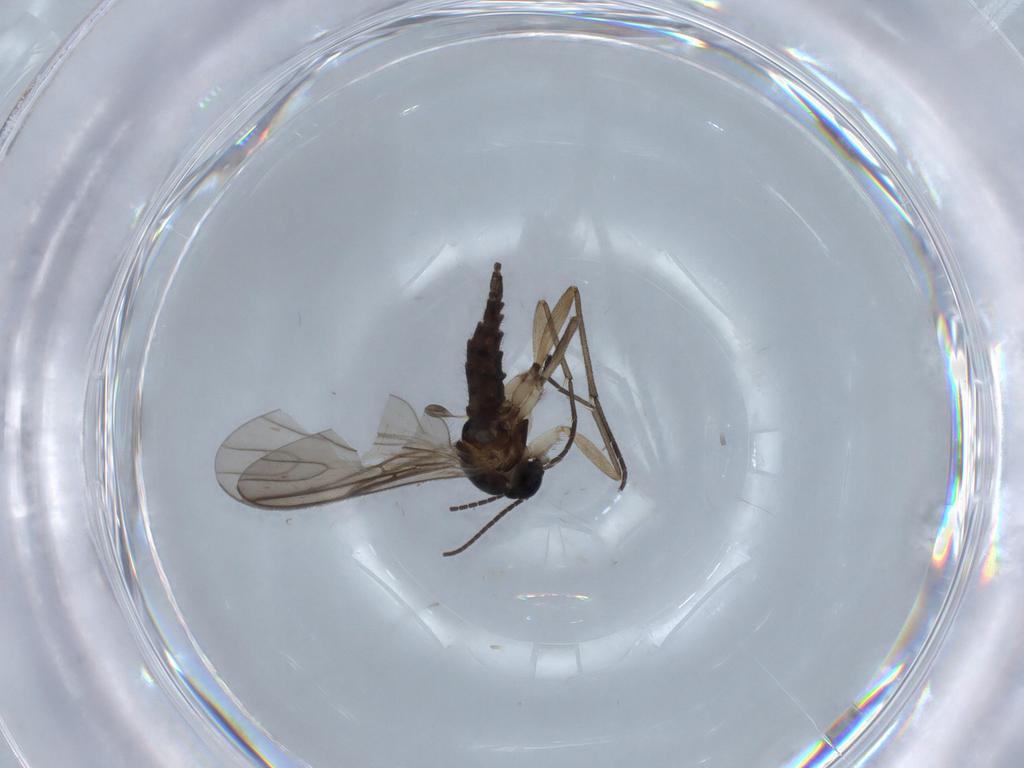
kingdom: Animalia
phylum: Arthropoda
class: Insecta
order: Diptera
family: Sciaridae
